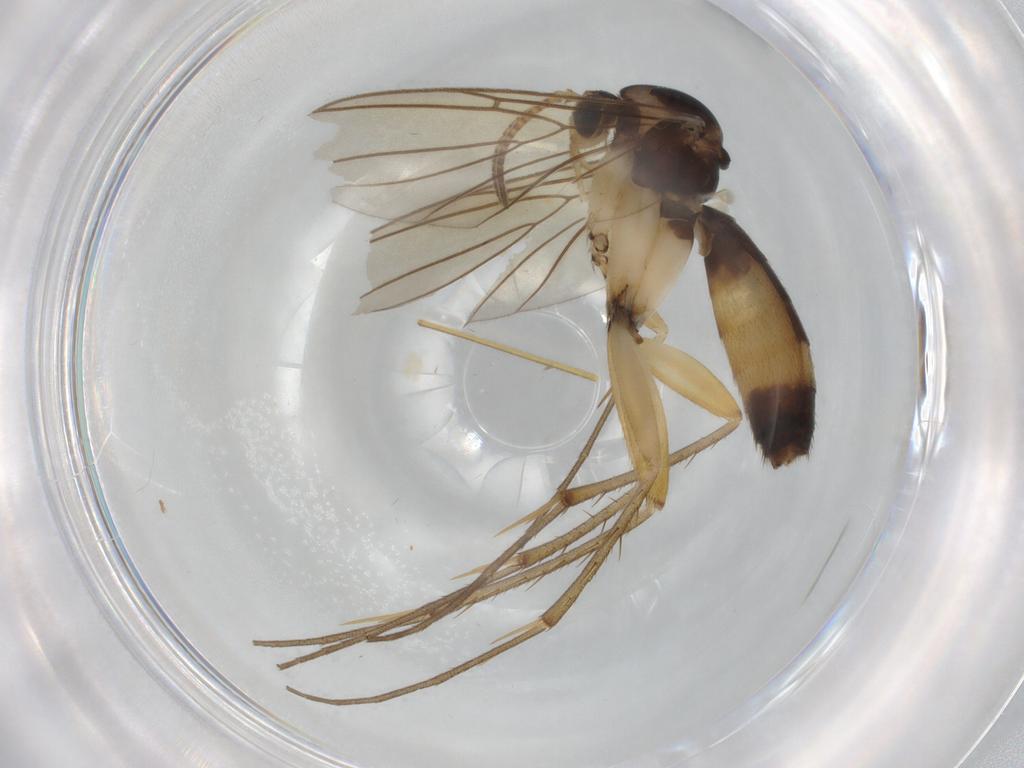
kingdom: Animalia
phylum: Arthropoda
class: Insecta
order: Diptera
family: Mycetophilidae
